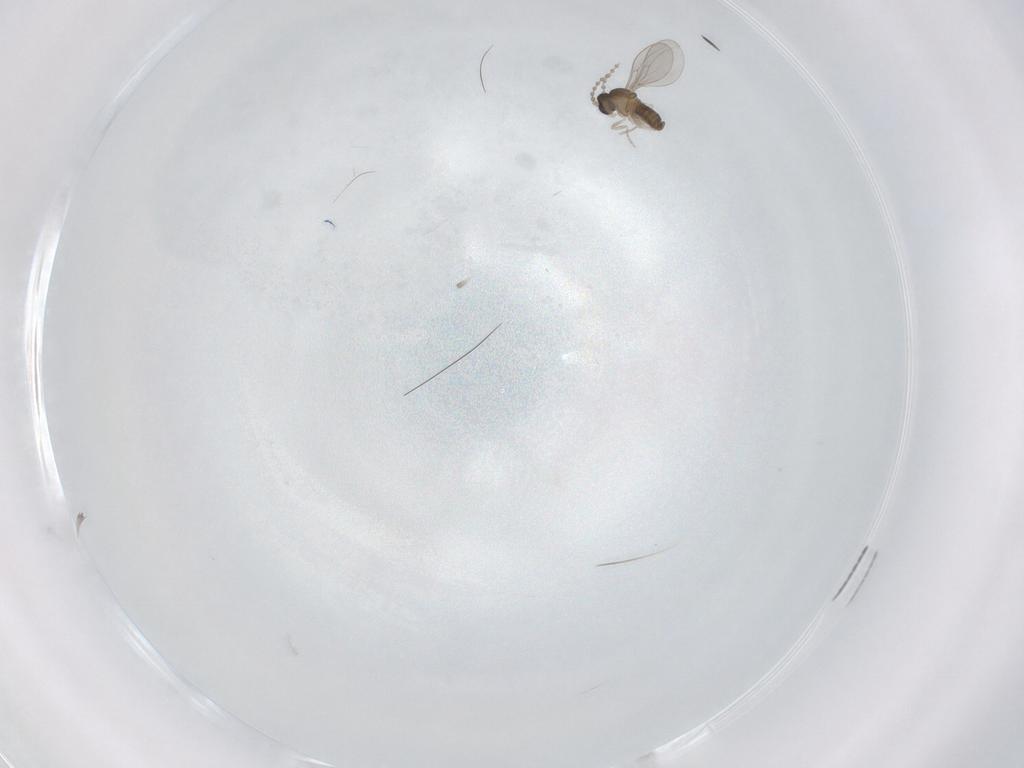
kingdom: Animalia
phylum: Arthropoda
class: Insecta
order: Diptera
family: Cecidomyiidae
